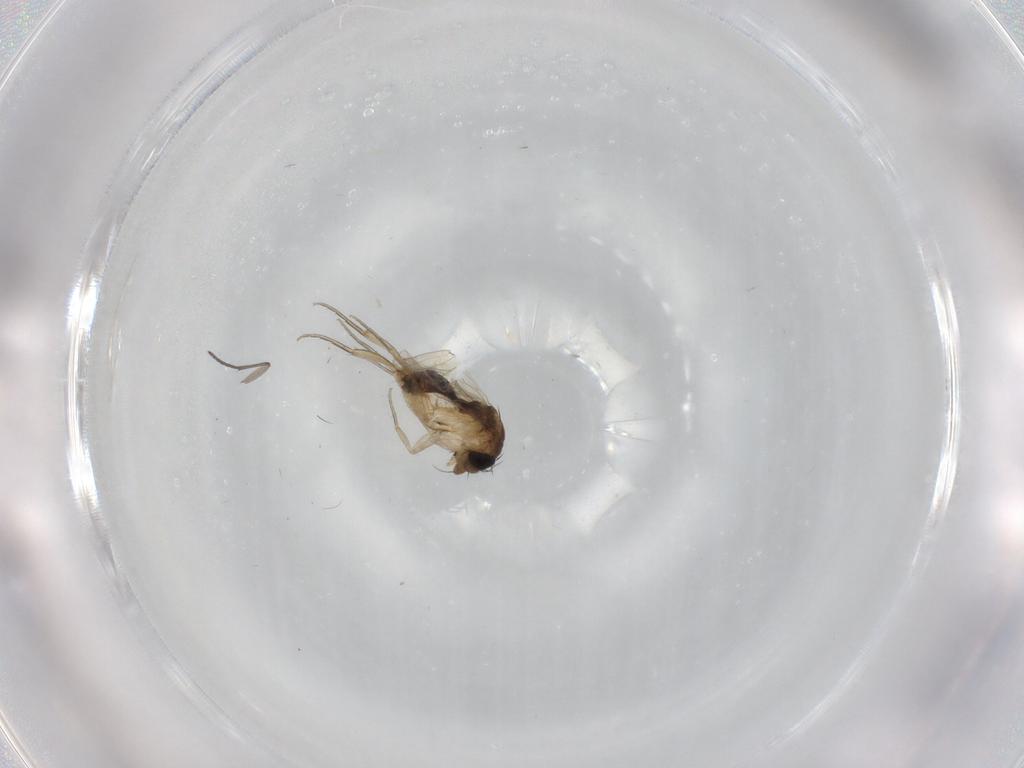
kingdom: Animalia
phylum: Arthropoda
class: Insecta
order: Diptera
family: Phoridae
